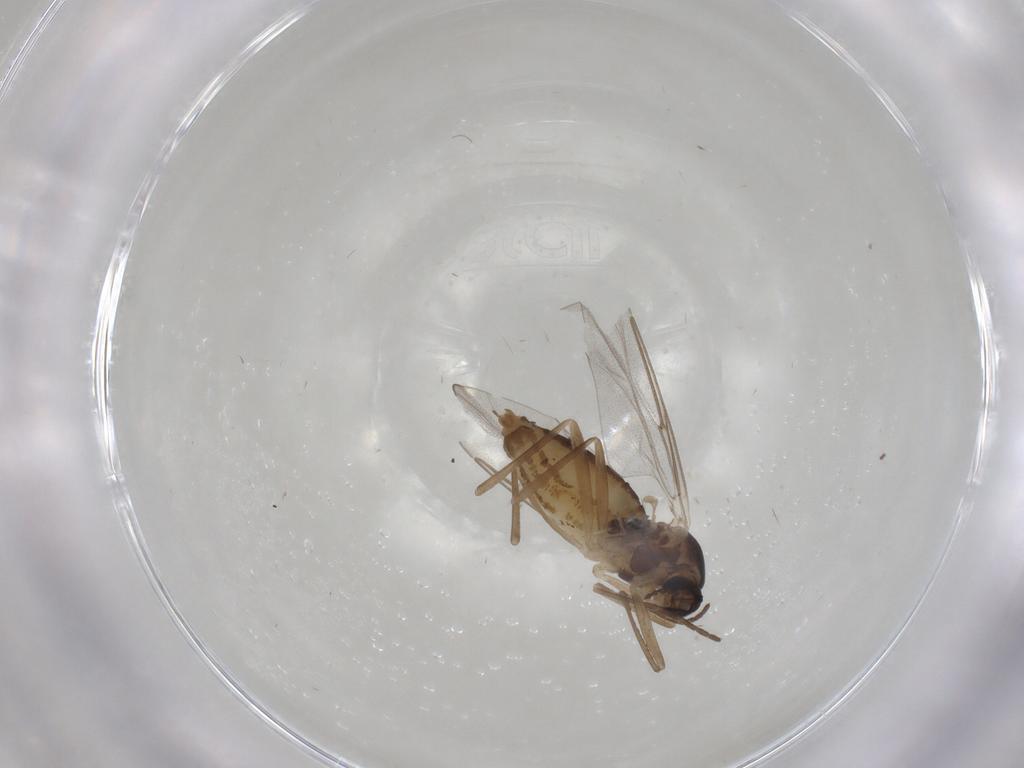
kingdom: Animalia
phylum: Arthropoda
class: Insecta
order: Diptera
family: Cecidomyiidae
